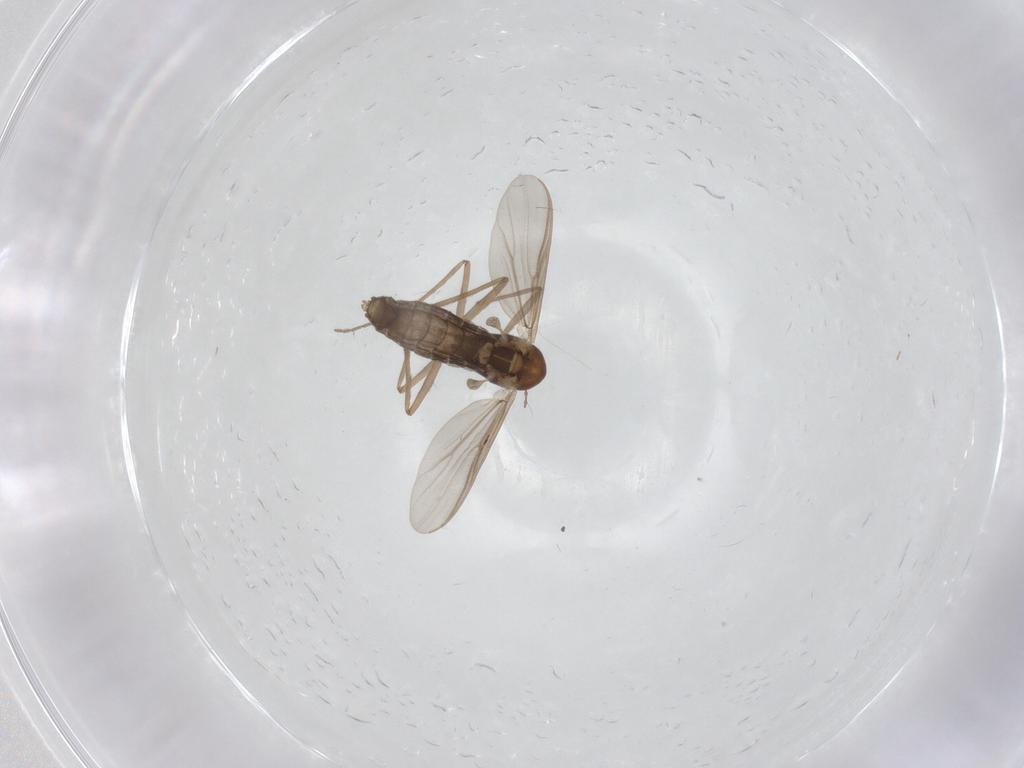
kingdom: Animalia
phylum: Arthropoda
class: Insecta
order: Diptera
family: Chironomidae
